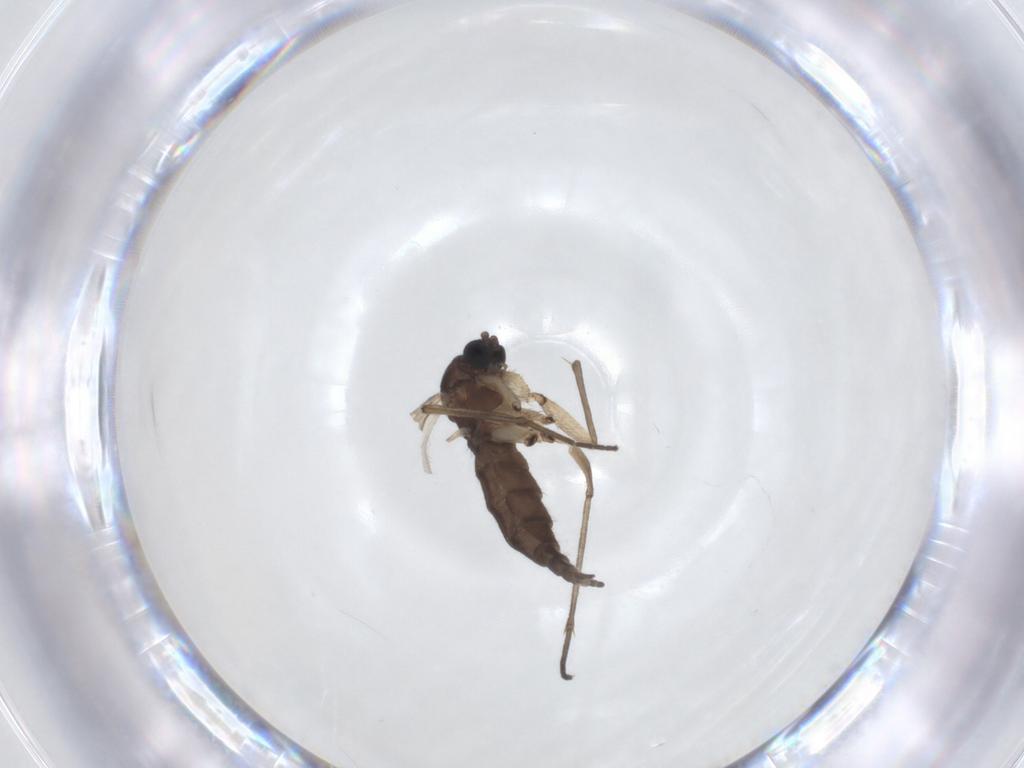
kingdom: Animalia
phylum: Arthropoda
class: Insecta
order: Diptera
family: Sciaridae
